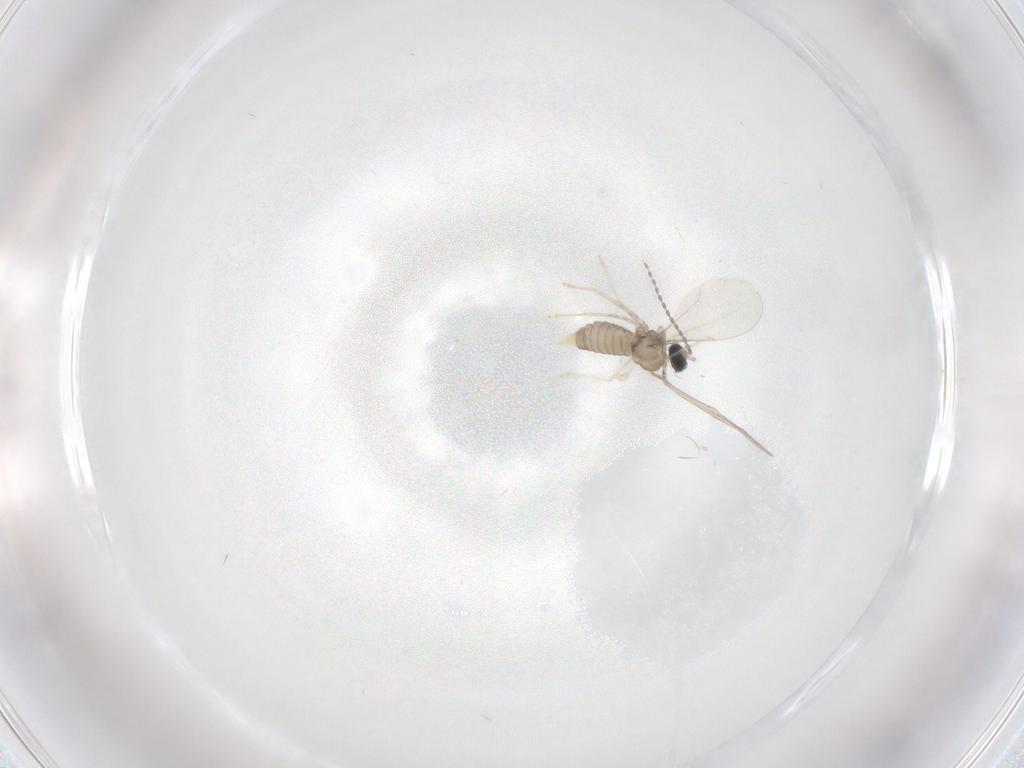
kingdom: Animalia
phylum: Arthropoda
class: Insecta
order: Diptera
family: Cecidomyiidae
